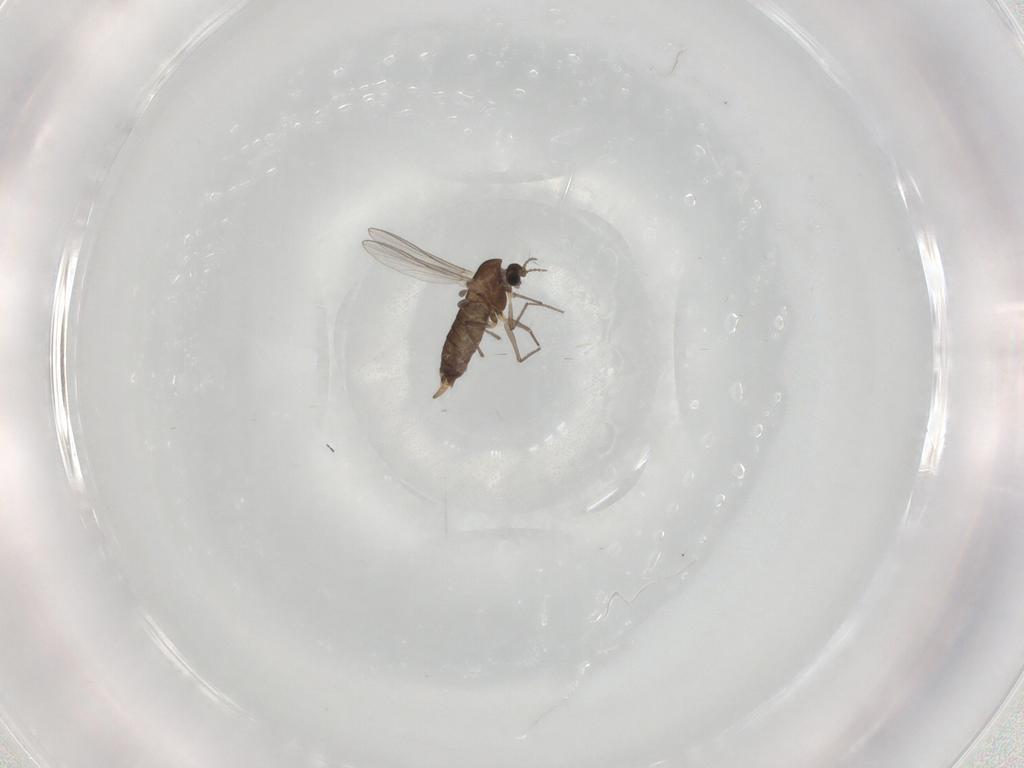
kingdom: Animalia
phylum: Arthropoda
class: Insecta
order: Diptera
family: Chironomidae
